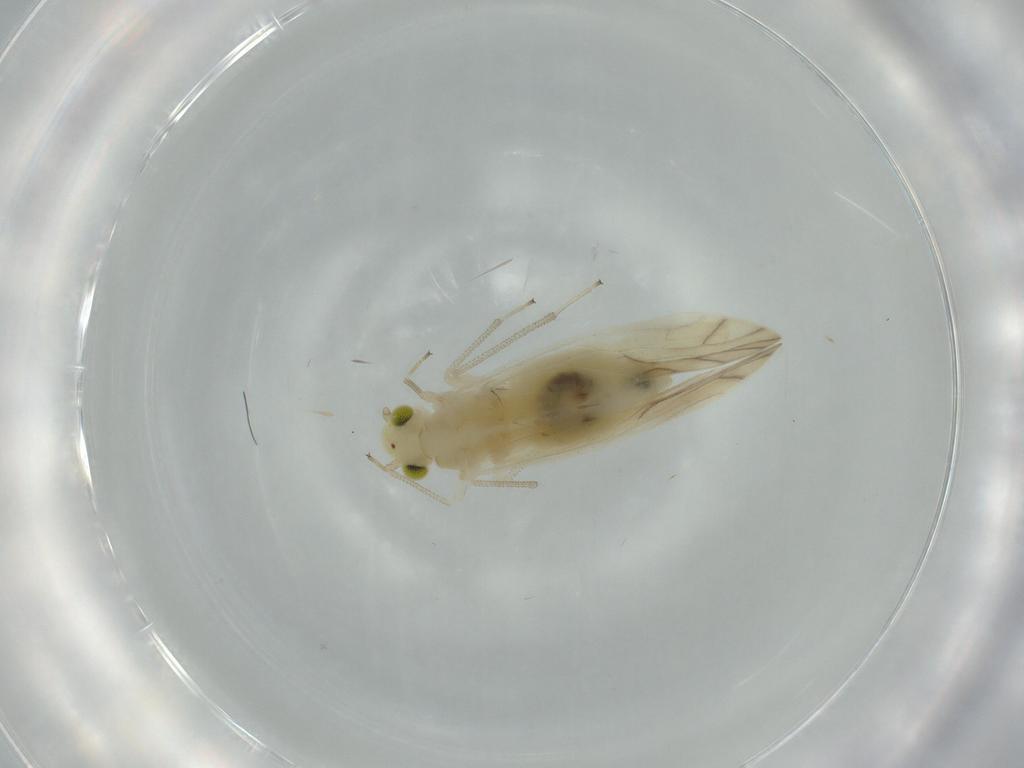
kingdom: Animalia
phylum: Arthropoda
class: Insecta
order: Psocodea
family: Caeciliusidae
